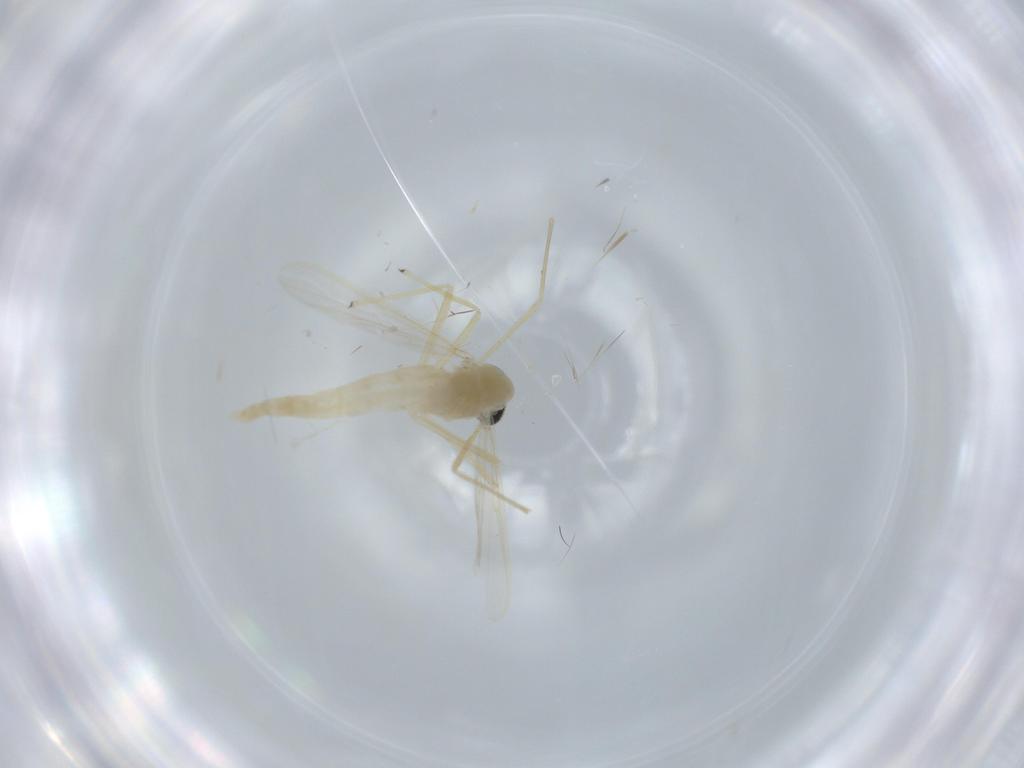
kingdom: Animalia
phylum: Arthropoda
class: Insecta
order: Diptera
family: Chironomidae
